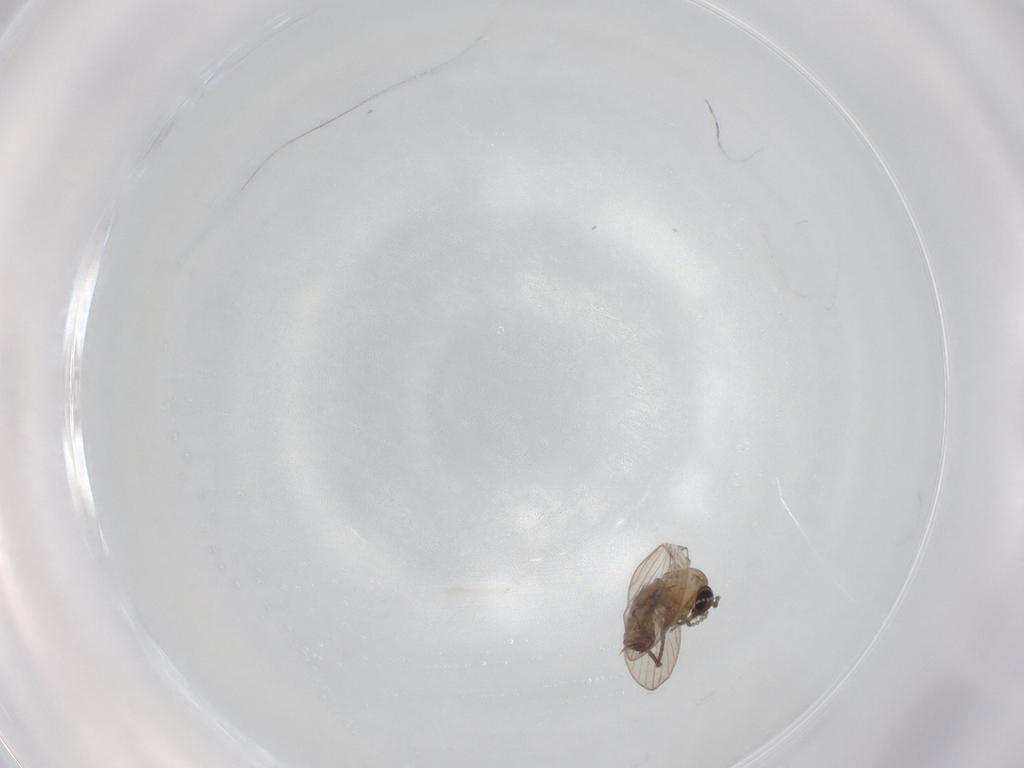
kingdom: Animalia
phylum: Arthropoda
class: Insecta
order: Diptera
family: Psychodidae
